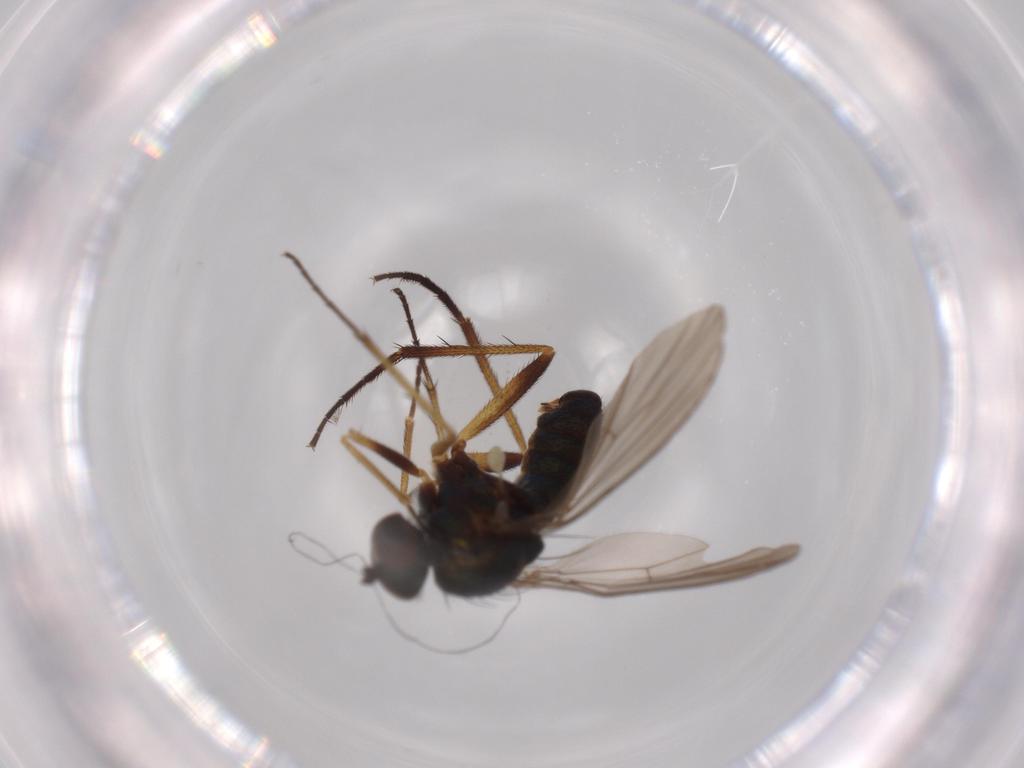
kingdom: Animalia
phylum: Arthropoda
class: Insecta
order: Diptera
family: Dolichopodidae
